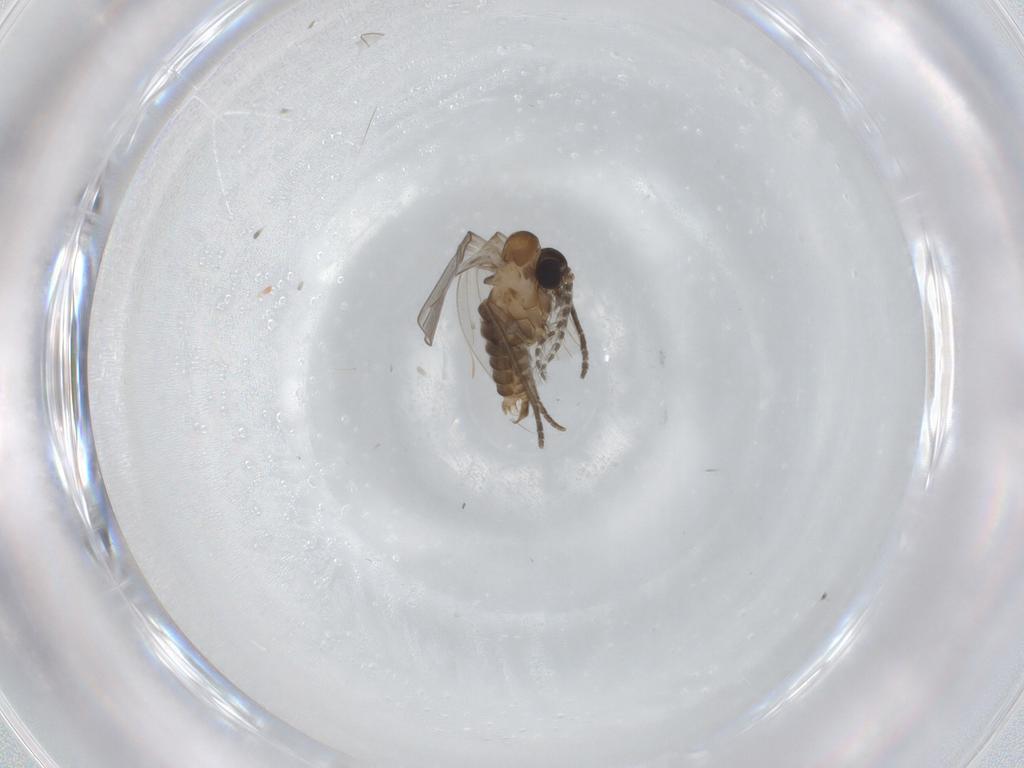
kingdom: Animalia
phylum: Arthropoda
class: Insecta
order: Diptera
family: Psychodidae
